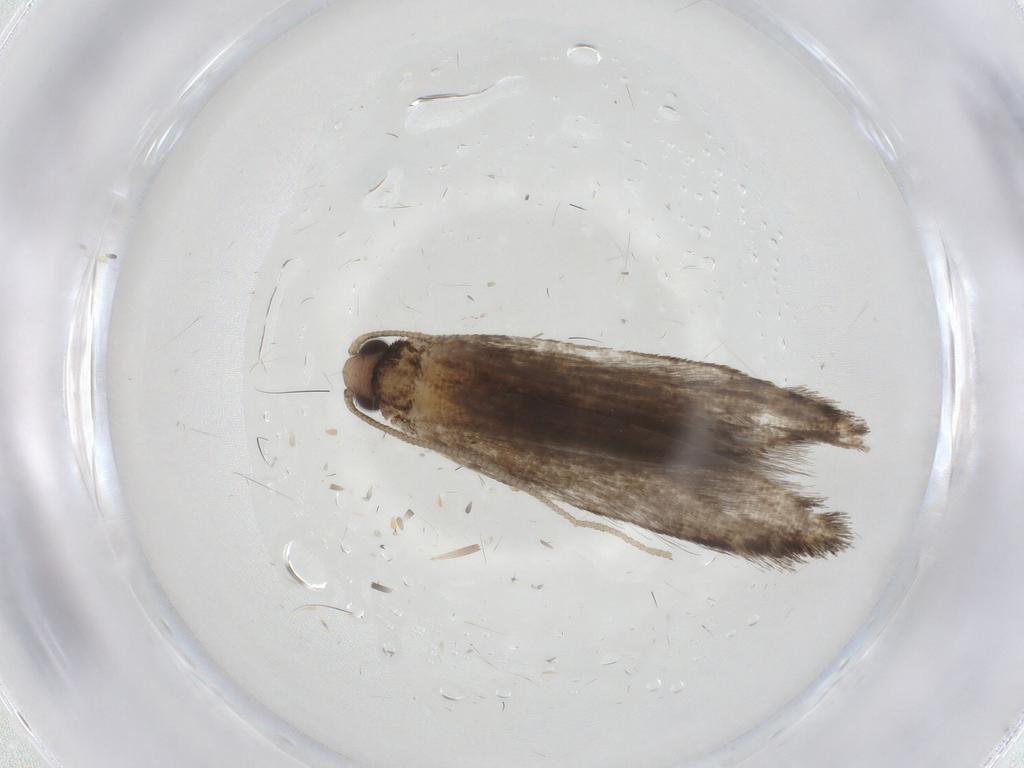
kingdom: Animalia
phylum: Arthropoda
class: Insecta
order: Lepidoptera
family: Tineidae
